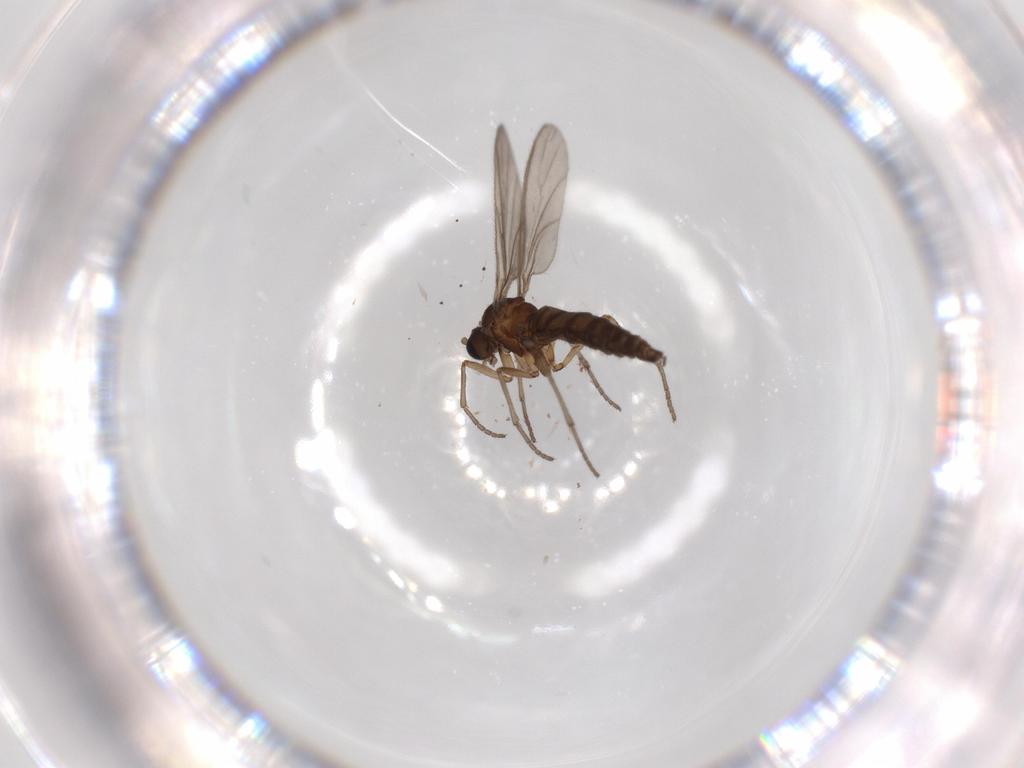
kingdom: Animalia
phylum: Arthropoda
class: Insecta
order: Diptera
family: Sciaridae
